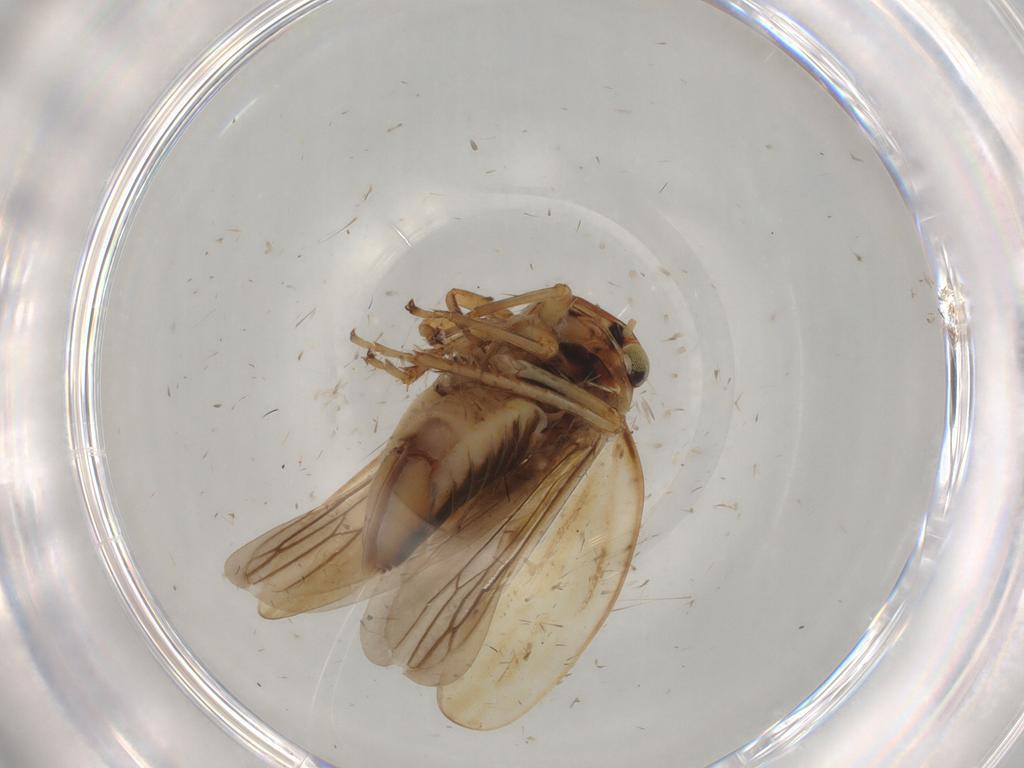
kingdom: Animalia
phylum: Arthropoda
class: Insecta
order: Hemiptera
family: Cicadellidae
